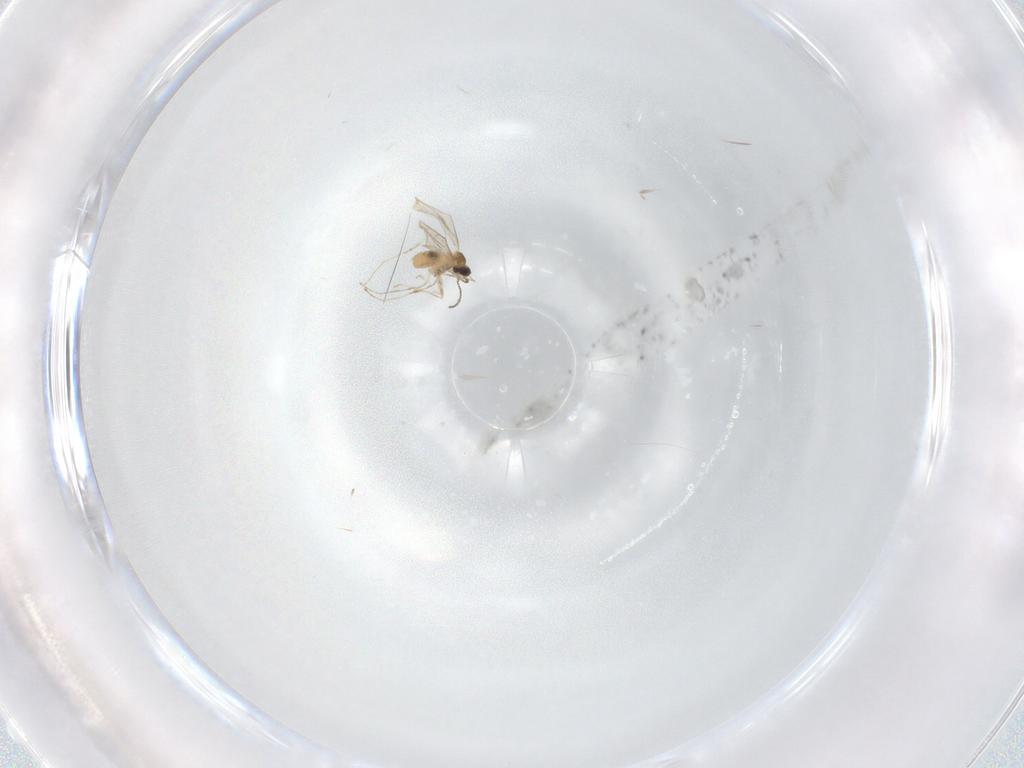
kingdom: Animalia
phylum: Arthropoda
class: Insecta
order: Diptera
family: Cecidomyiidae
